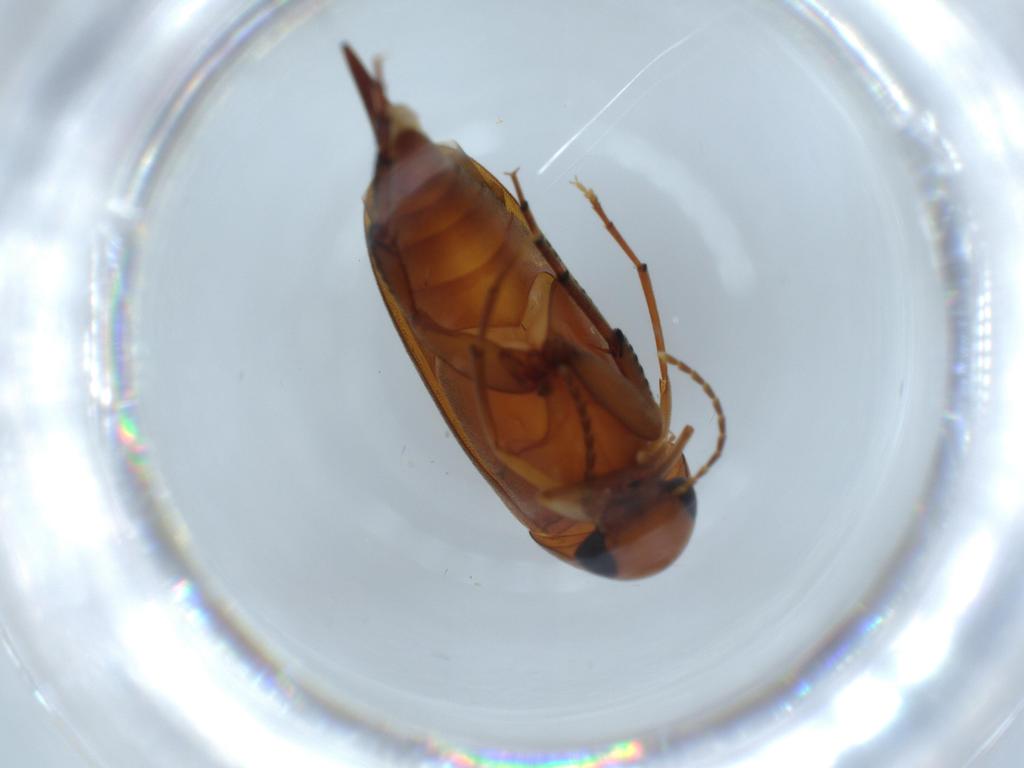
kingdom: Animalia
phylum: Arthropoda
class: Insecta
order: Coleoptera
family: Mordellidae
